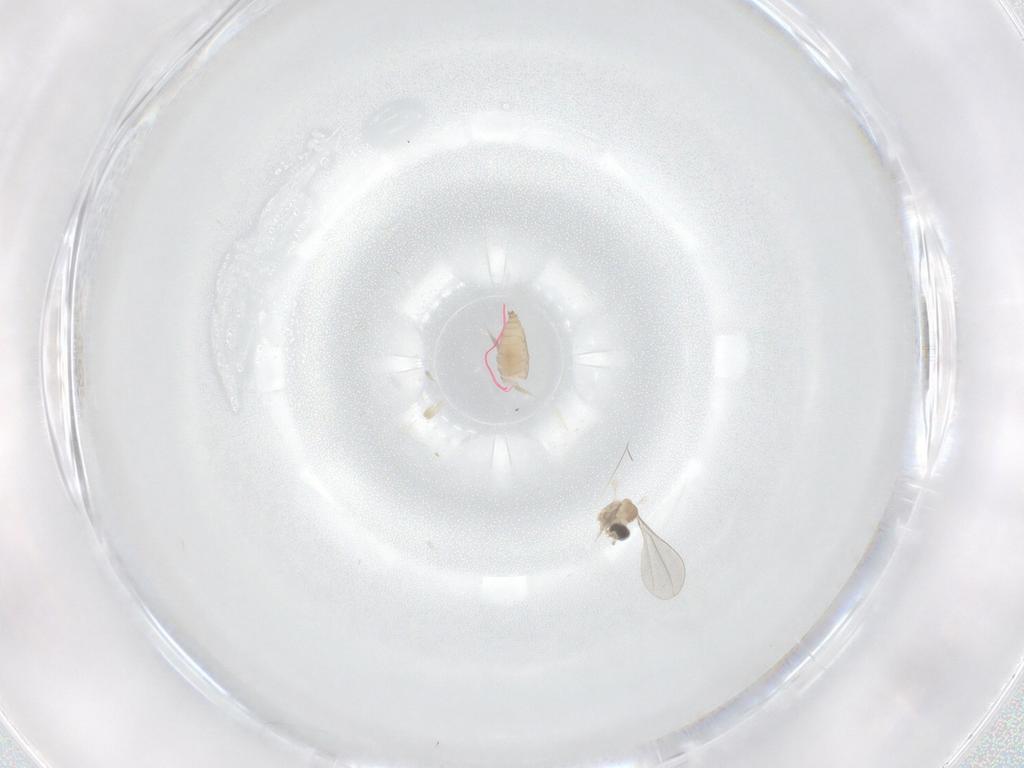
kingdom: Animalia
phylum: Arthropoda
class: Insecta
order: Diptera
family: Cecidomyiidae
